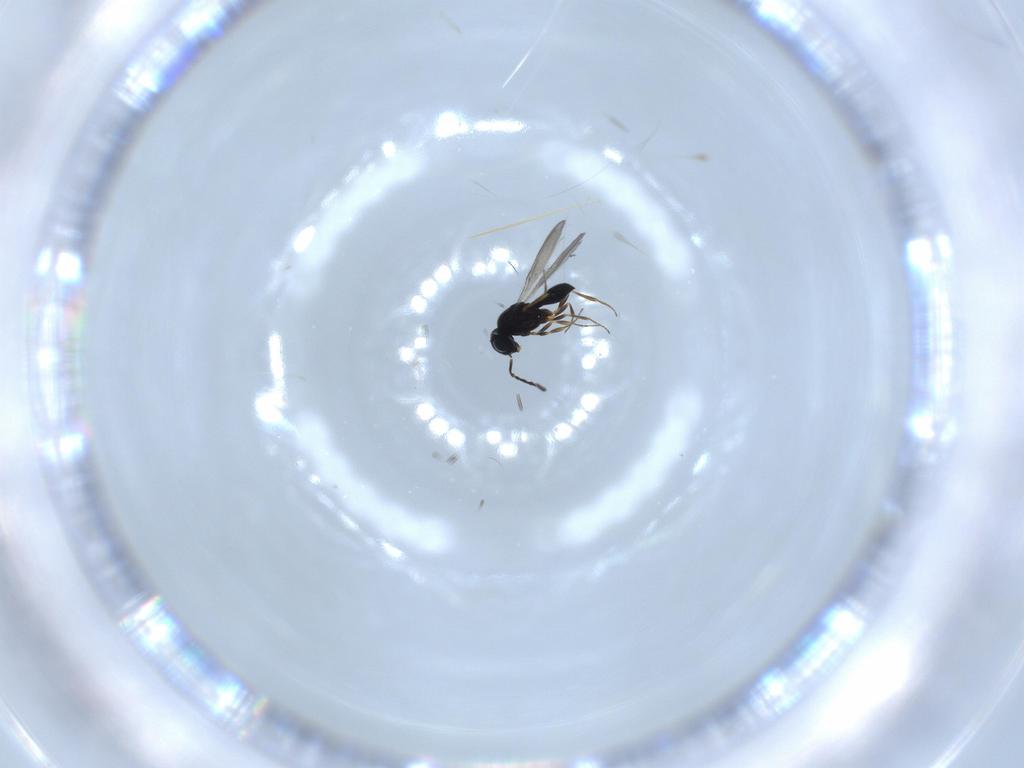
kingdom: Animalia
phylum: Arthropoda
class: Insecta
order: Hymenoptera
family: Scelionidae
